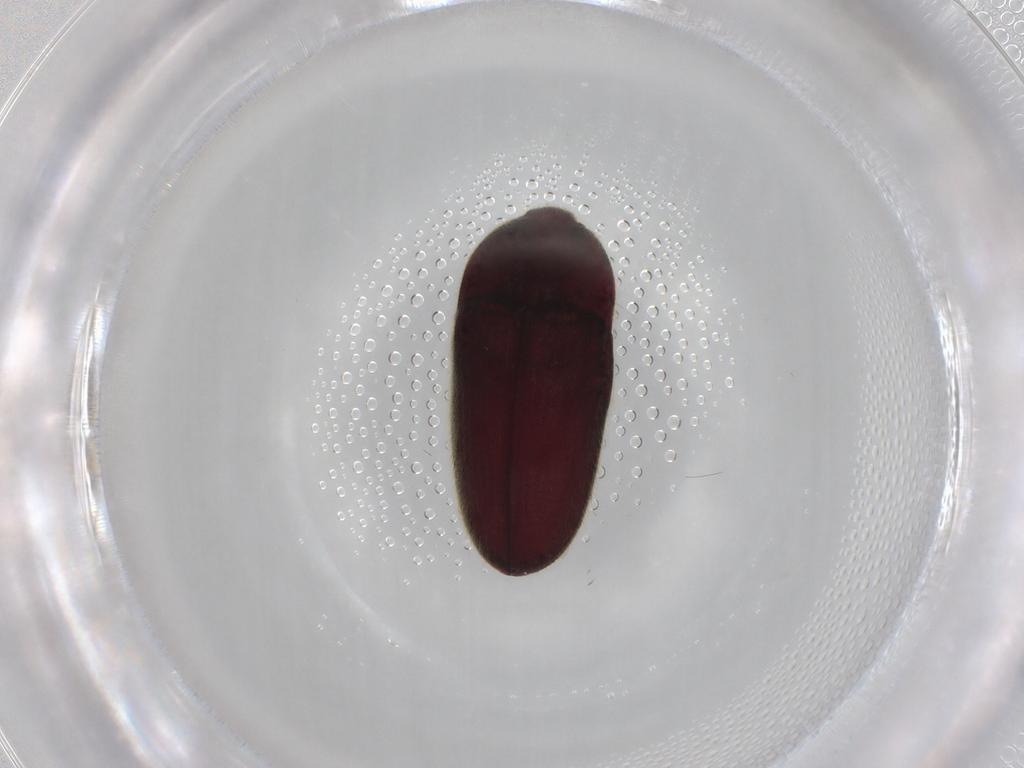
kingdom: Animalia
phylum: Arthropoda
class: Insecta
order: Coleoptera
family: Throscidae
